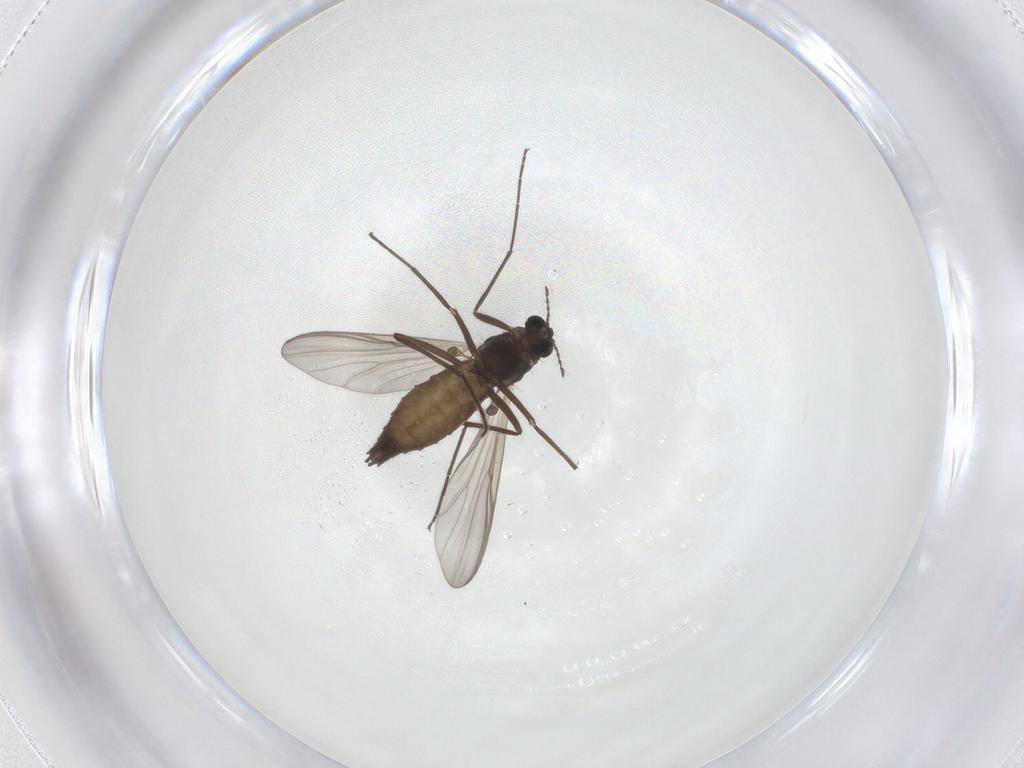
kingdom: Animalia
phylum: Arthropoda
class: Insecta
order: Diptera
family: Chironomidae
